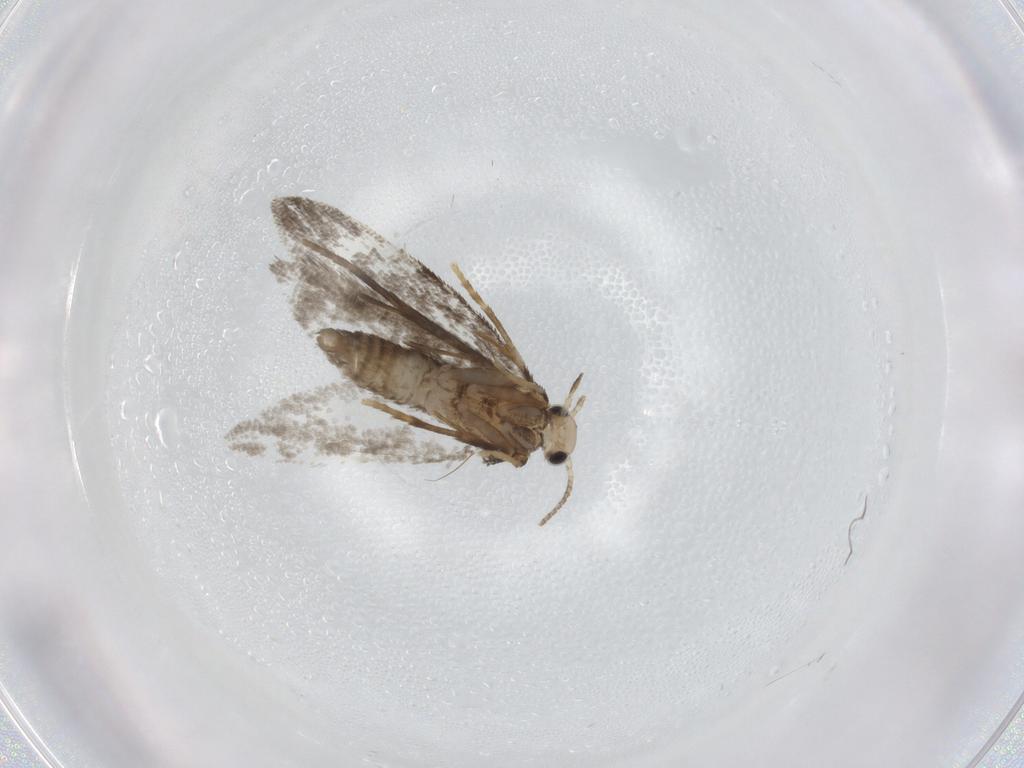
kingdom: Animalia
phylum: Arthropoda
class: Insecta
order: Lepidoptera
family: Psychidae
